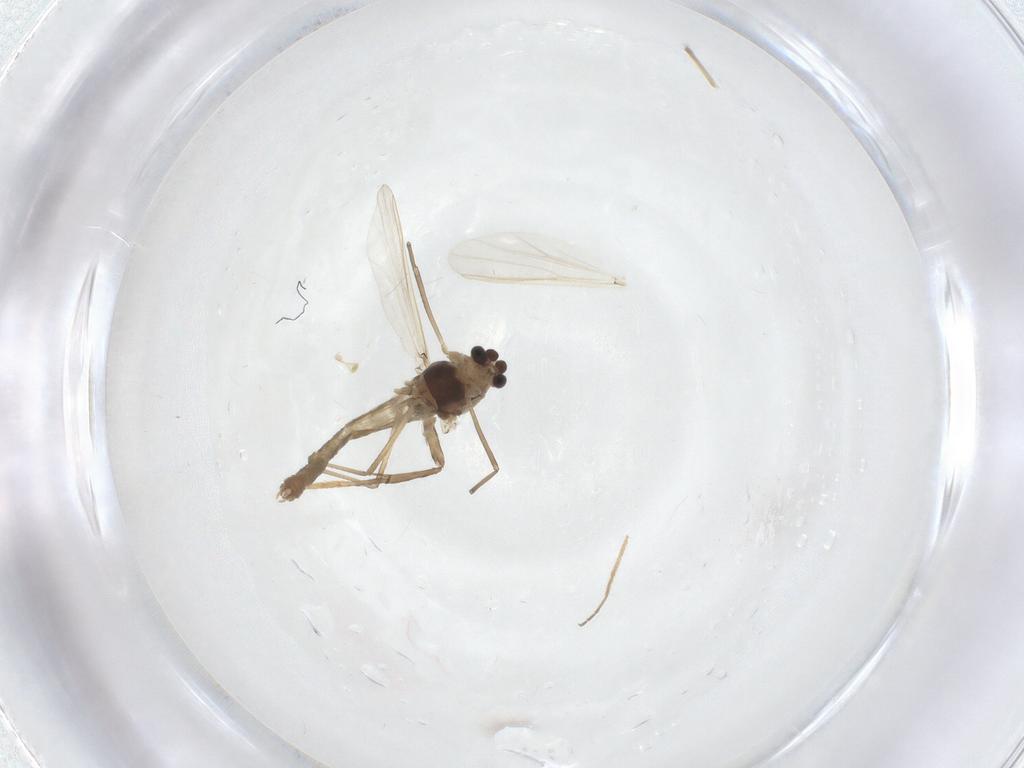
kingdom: Animalia
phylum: Arthropoda
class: Insecta
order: Diptera
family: Chironomidae
